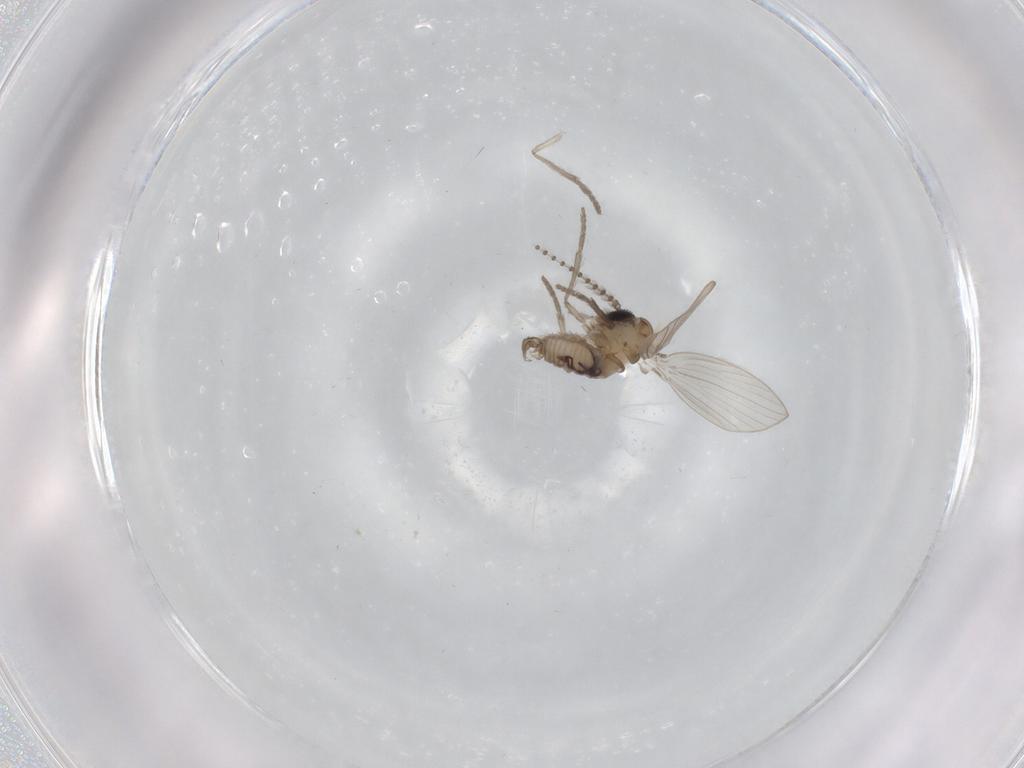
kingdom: Animalia
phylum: Arthropoda
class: Insecta
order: Diptera
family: Psychodidae
